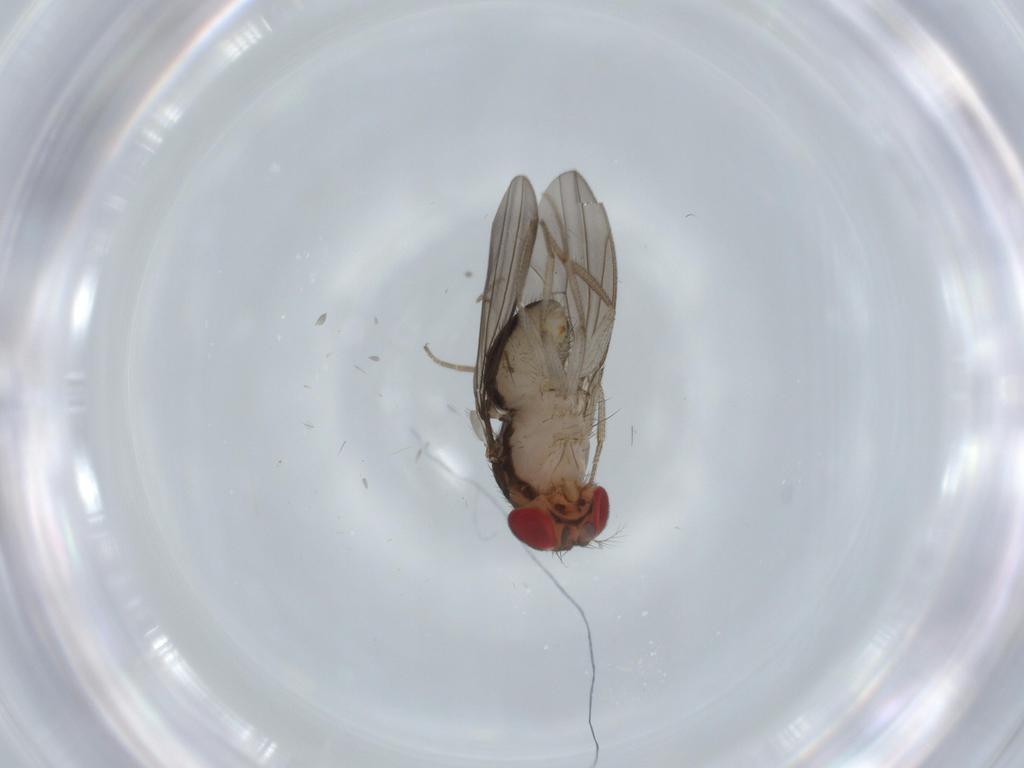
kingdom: Animalia
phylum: Arthropoda
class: Insecta
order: Diptera
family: Drosophilidae
